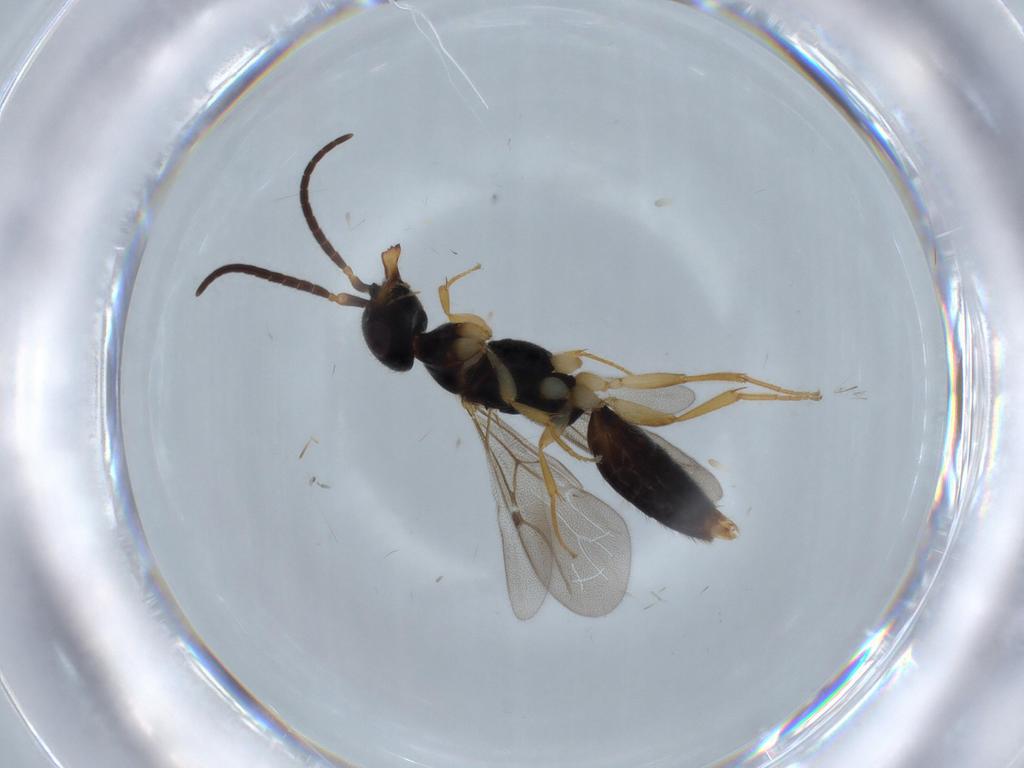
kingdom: Animalia
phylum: Arthropoda
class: Insecta
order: Hymenoptera
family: Bethylidae
